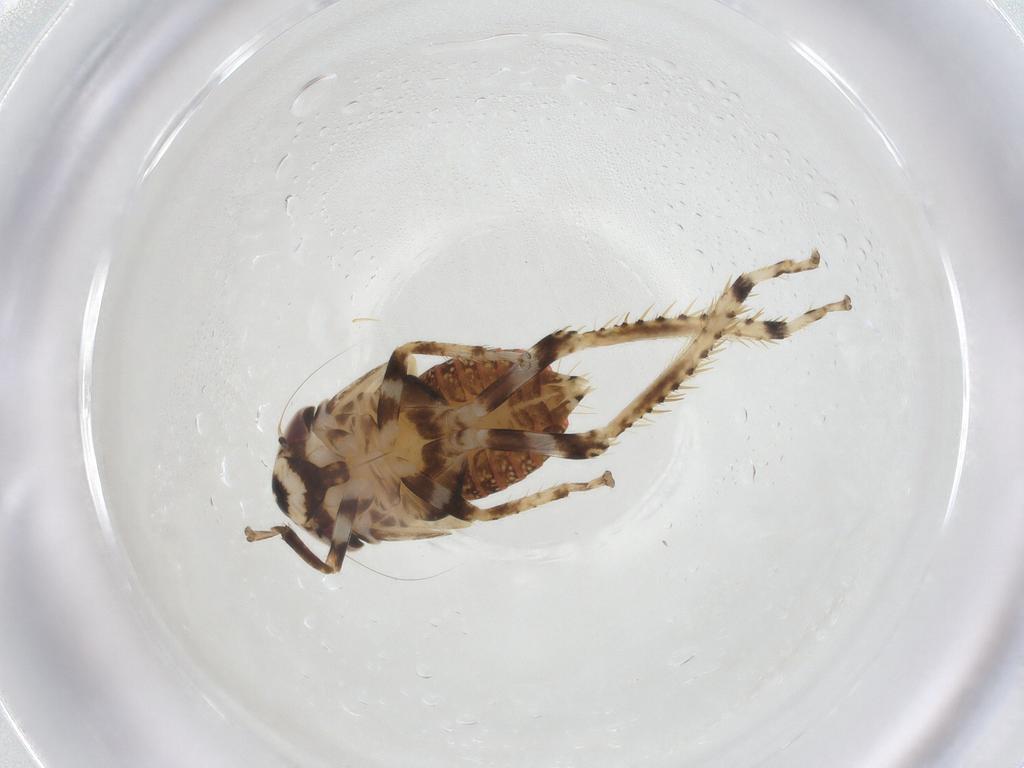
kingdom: Animalia
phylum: Arthropoda
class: Insecta
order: Hemiptera
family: Cicadellidae
